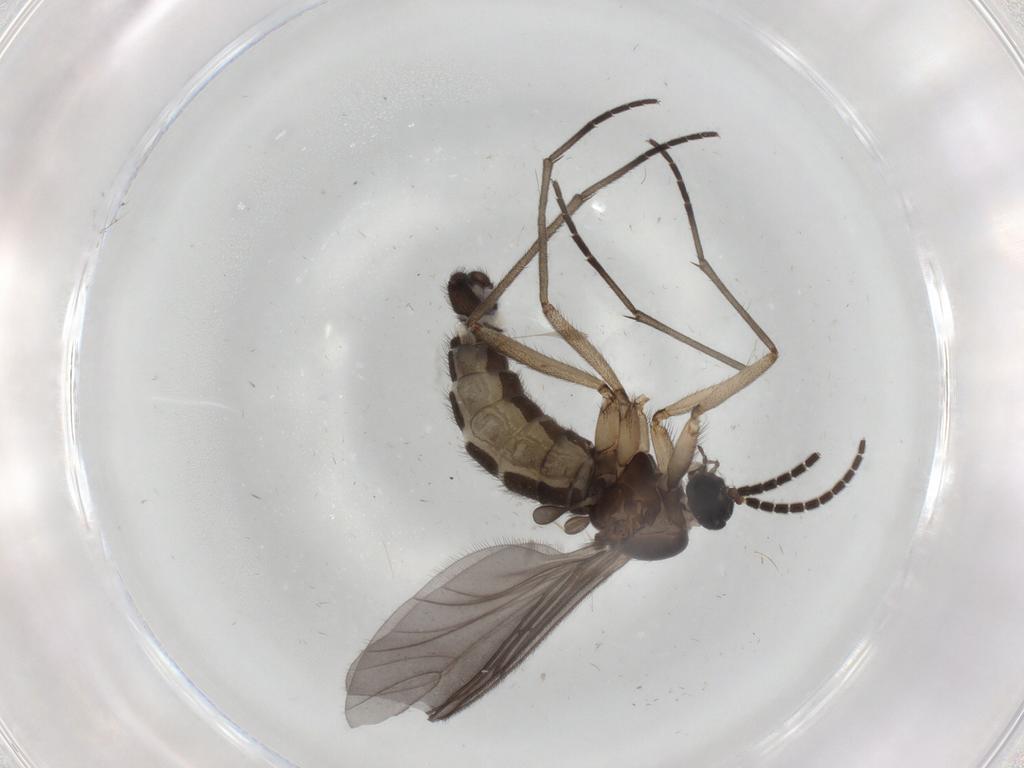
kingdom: Animalia
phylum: Arthropoda
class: Insecta
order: Diptera
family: Sciaridae
